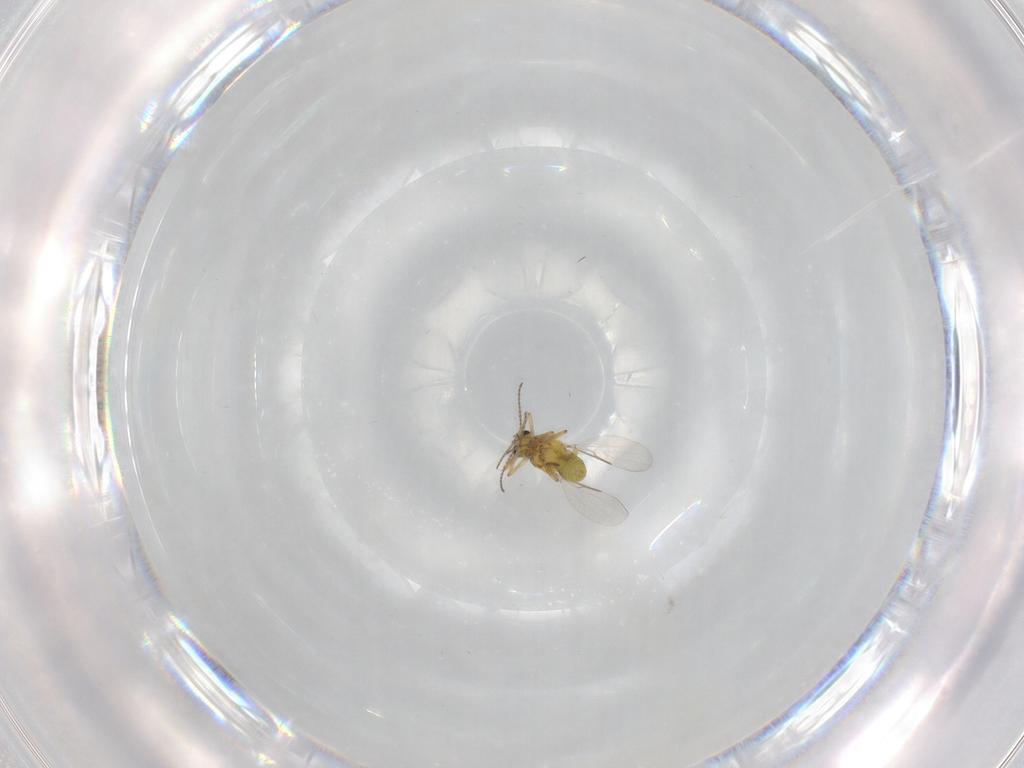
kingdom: Animalia
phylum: Arthropoda
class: Insecta
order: Diptera
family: Ceratopogonidae
